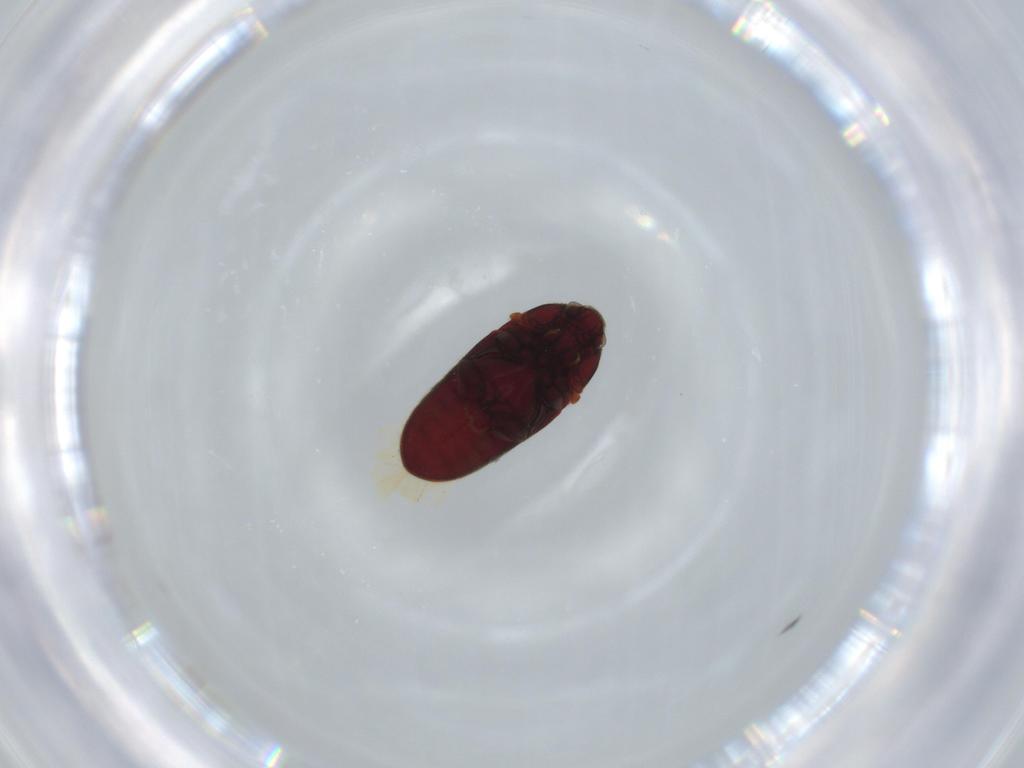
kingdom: Animalia
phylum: Arthropoda
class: Insecta
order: Coleoptera
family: Throscidae
